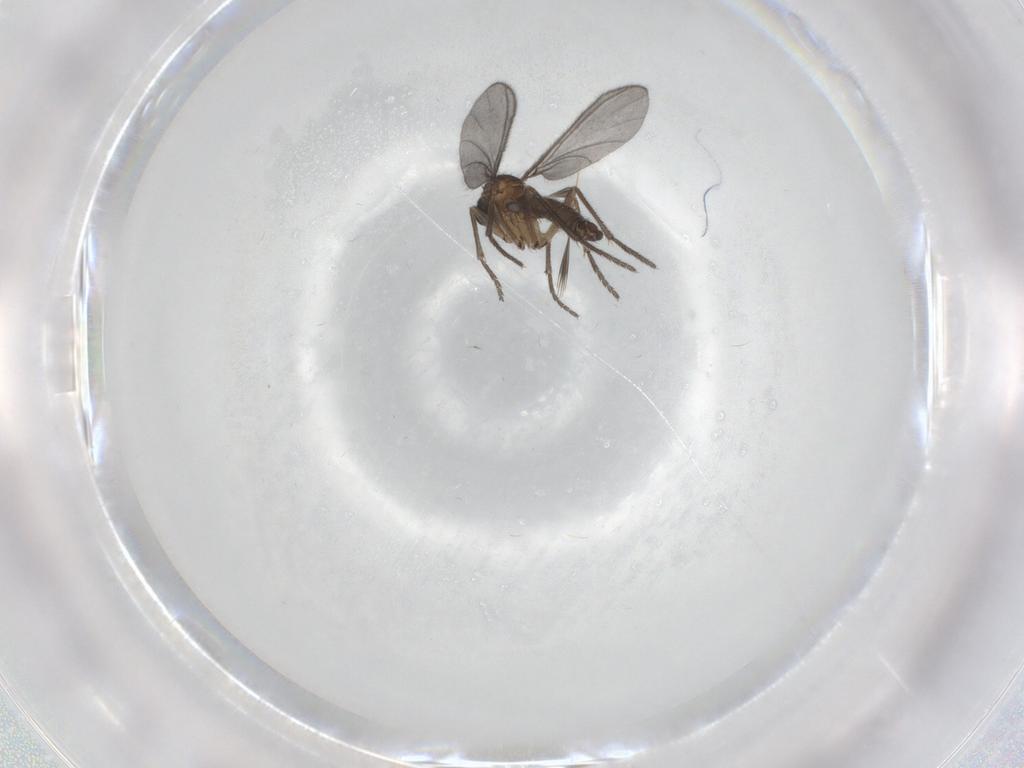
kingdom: Animalia
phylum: Arthropoda
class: Insecta
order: Diptera
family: Sciaridae
